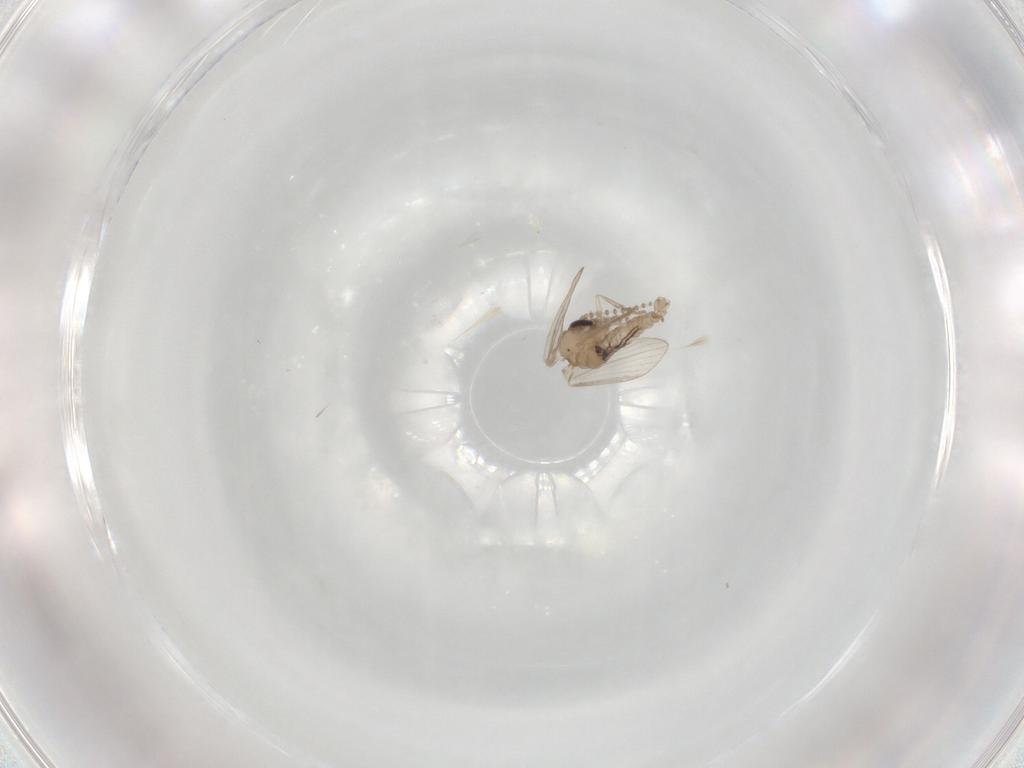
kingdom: Animalia
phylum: Arthropoda
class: Insecta
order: Diptera
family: Psychodidae
